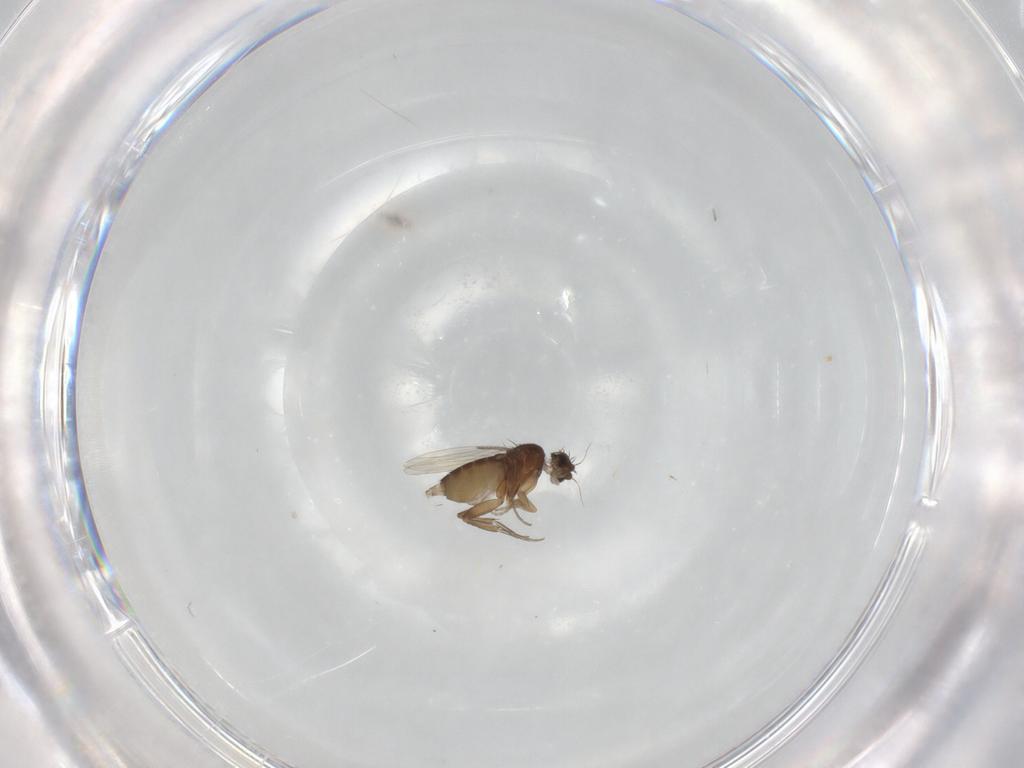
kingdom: Animalia
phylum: Arthropoda
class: Insecta
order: Diptera
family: Phoridae
